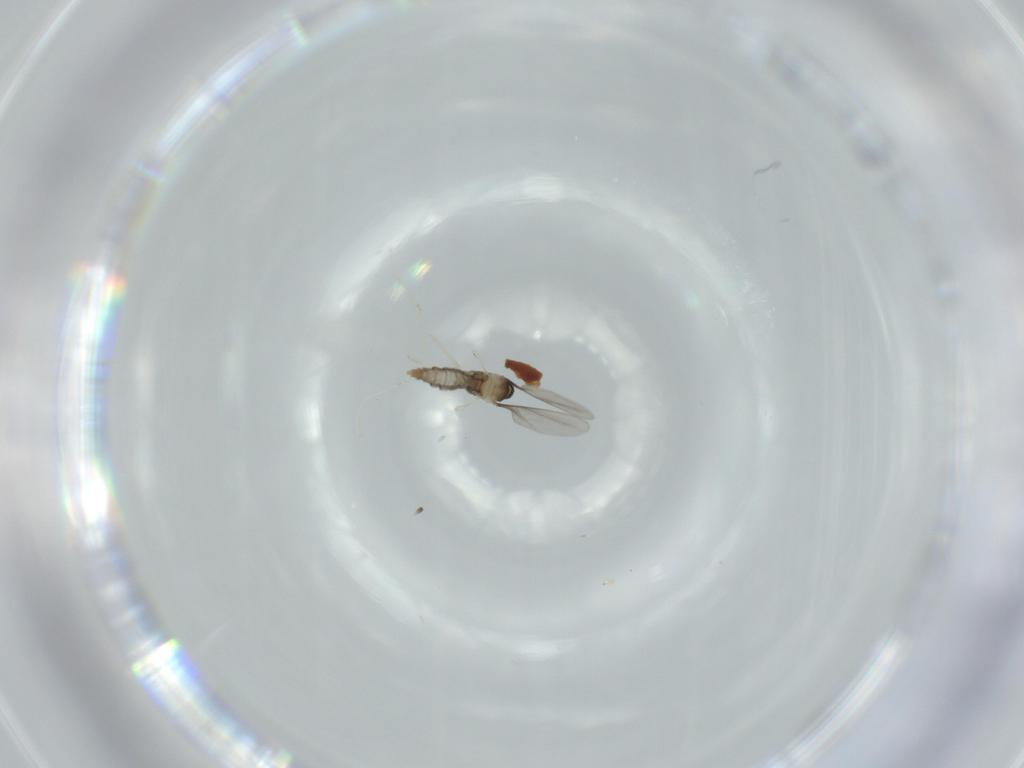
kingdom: Animalia
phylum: Arthropoda
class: Insecta
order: Diptera
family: Cecidomyiidae
